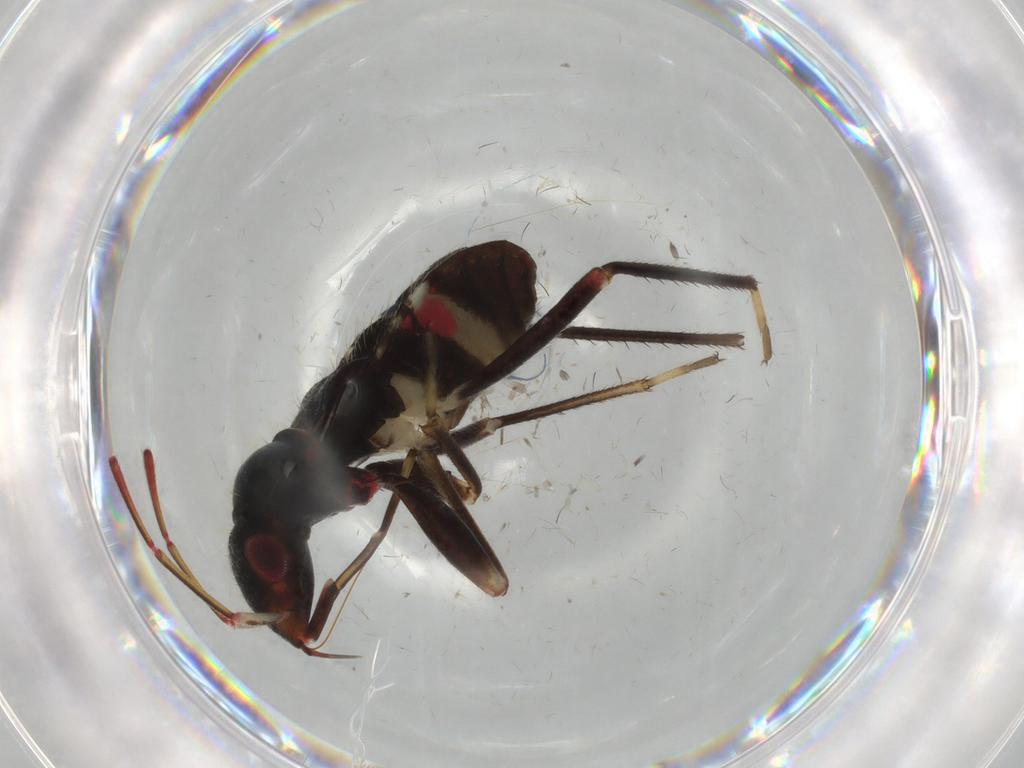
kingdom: Animalia
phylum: Arthropoda
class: Insecta
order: Hemiptera
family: Rhyparochromidae
